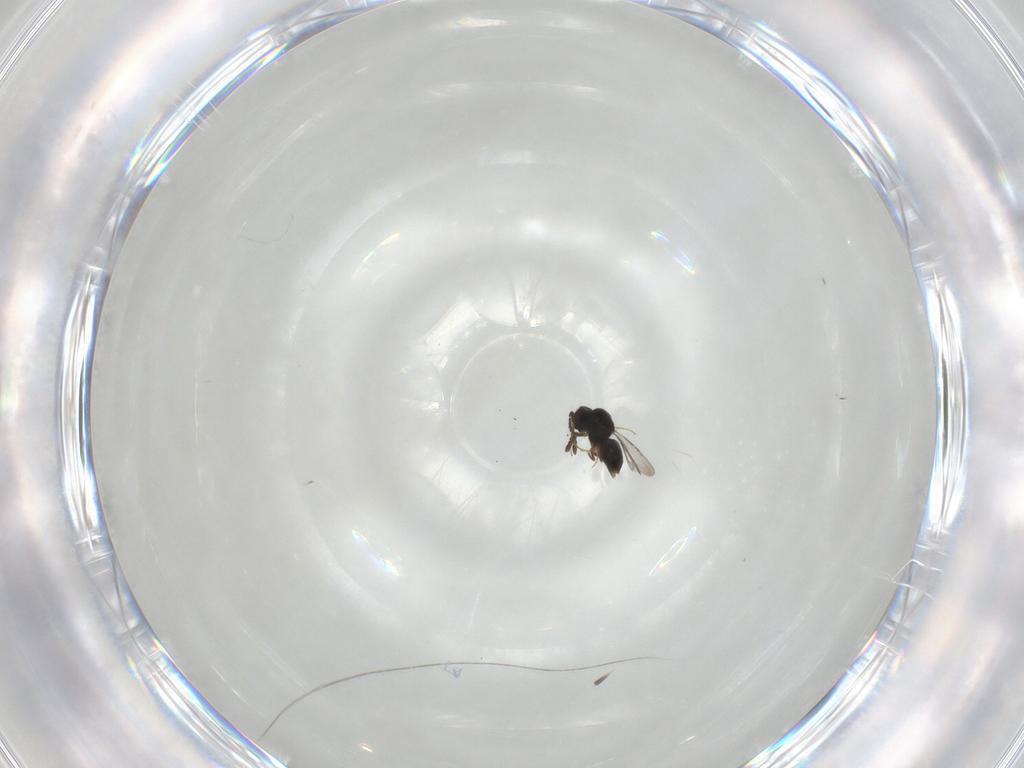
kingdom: Animalia
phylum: Arthropoda
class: Insecta
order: Hymenoptera
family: Braconidae
